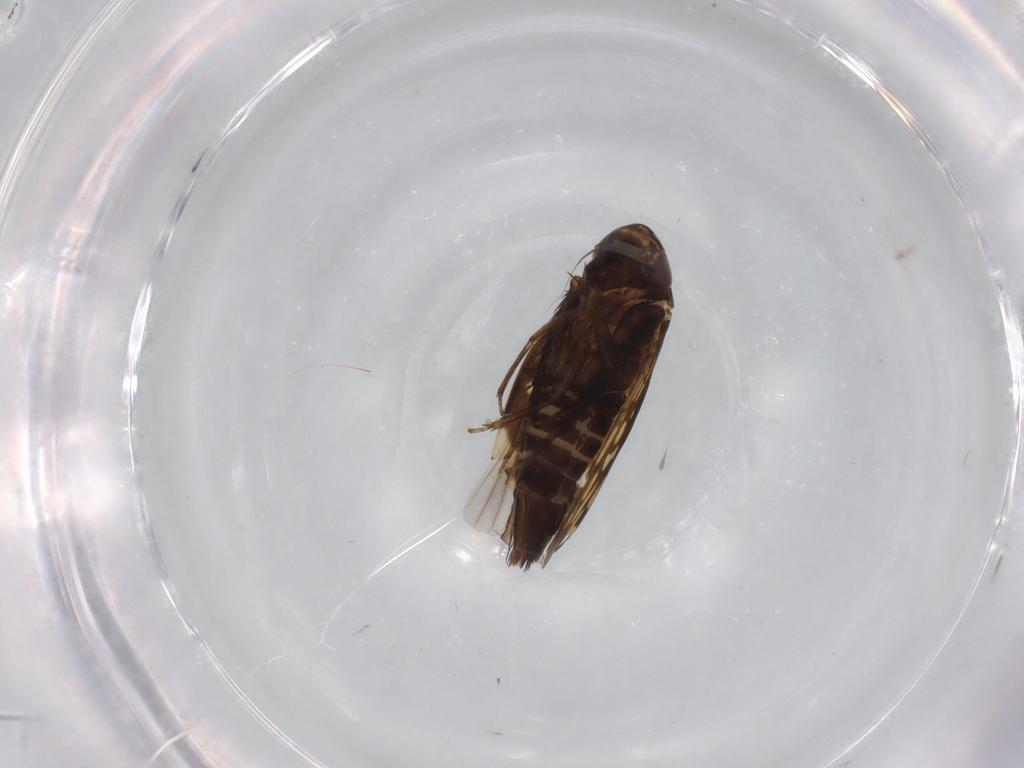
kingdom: Animalia
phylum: Arthropoda
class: Insecta
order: Hemiptera
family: Cicadellidae
